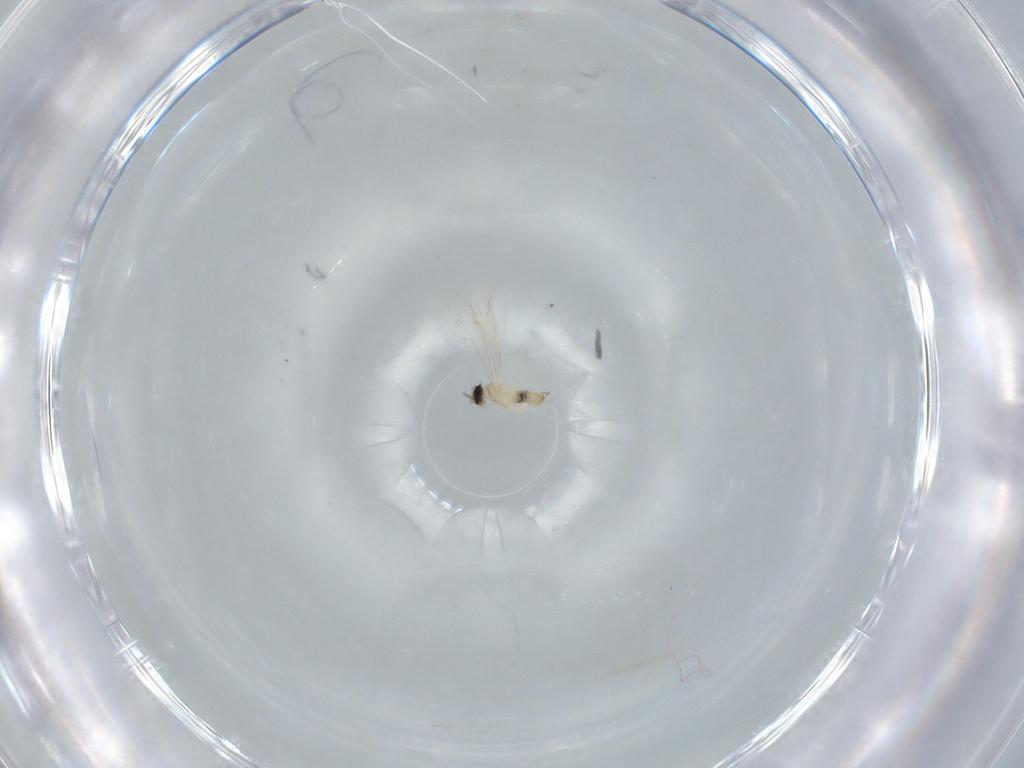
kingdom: Animalia
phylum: Arthropoda
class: Insecta
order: Diptera
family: Cecidomyiidae
